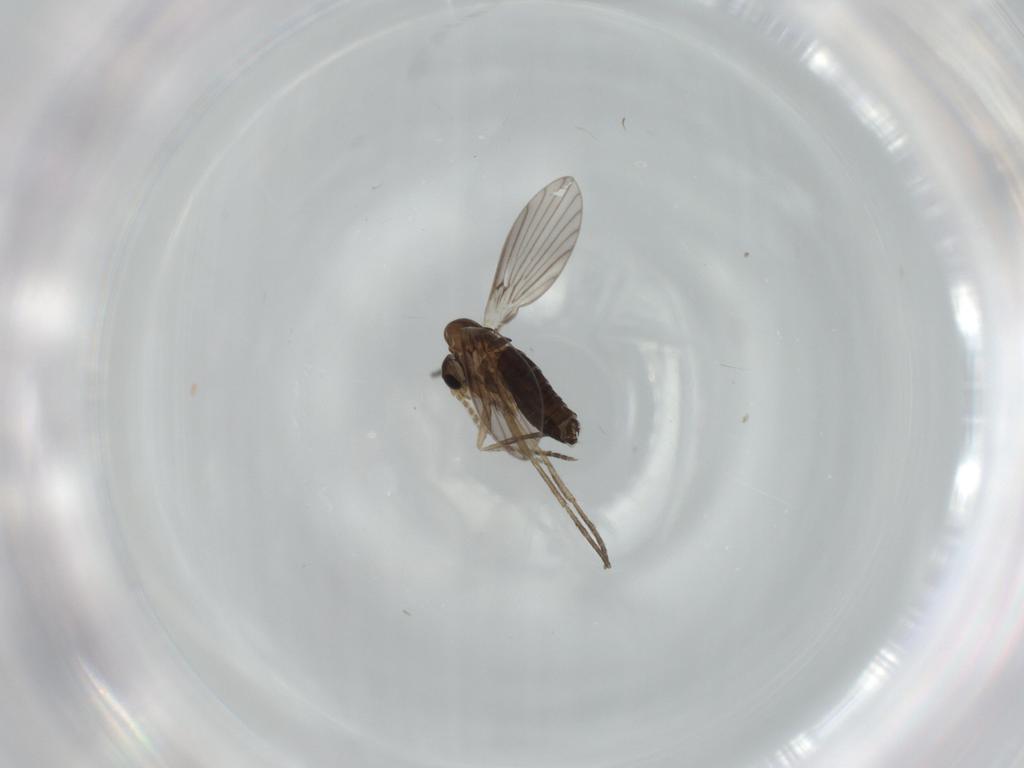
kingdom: Animalia
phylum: Arthropoda
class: Insecta
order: Diptera
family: Psychodidae
